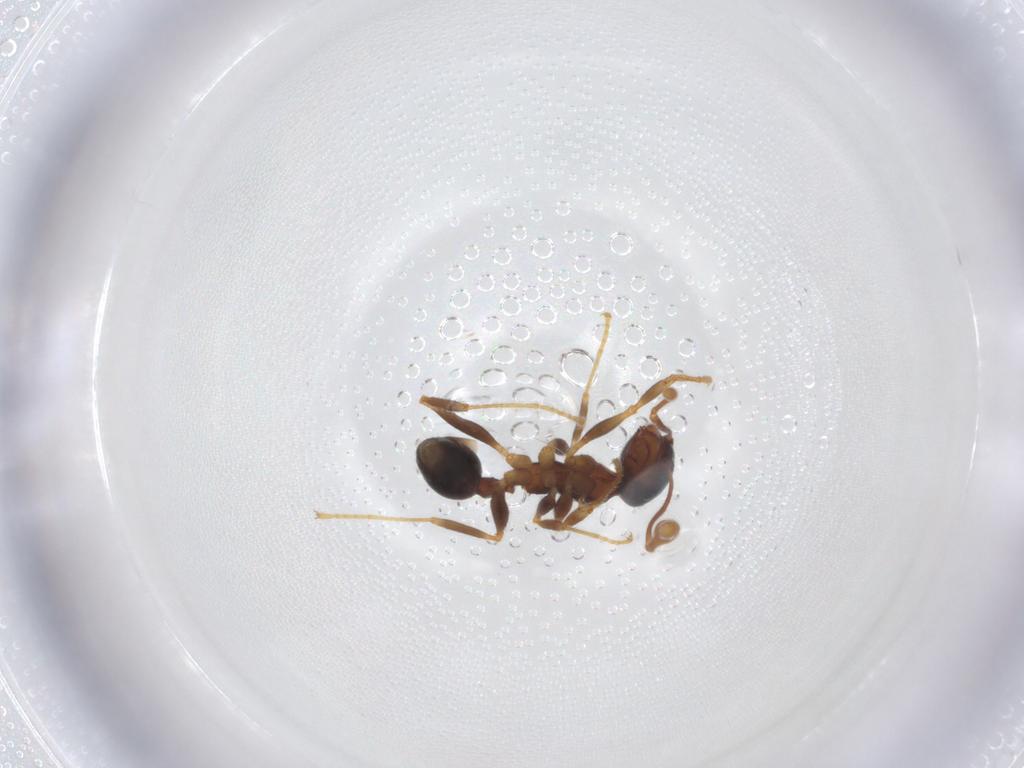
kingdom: Animalia
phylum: Arthropoda
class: Insecta
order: Hymenoptera
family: Formicidae
